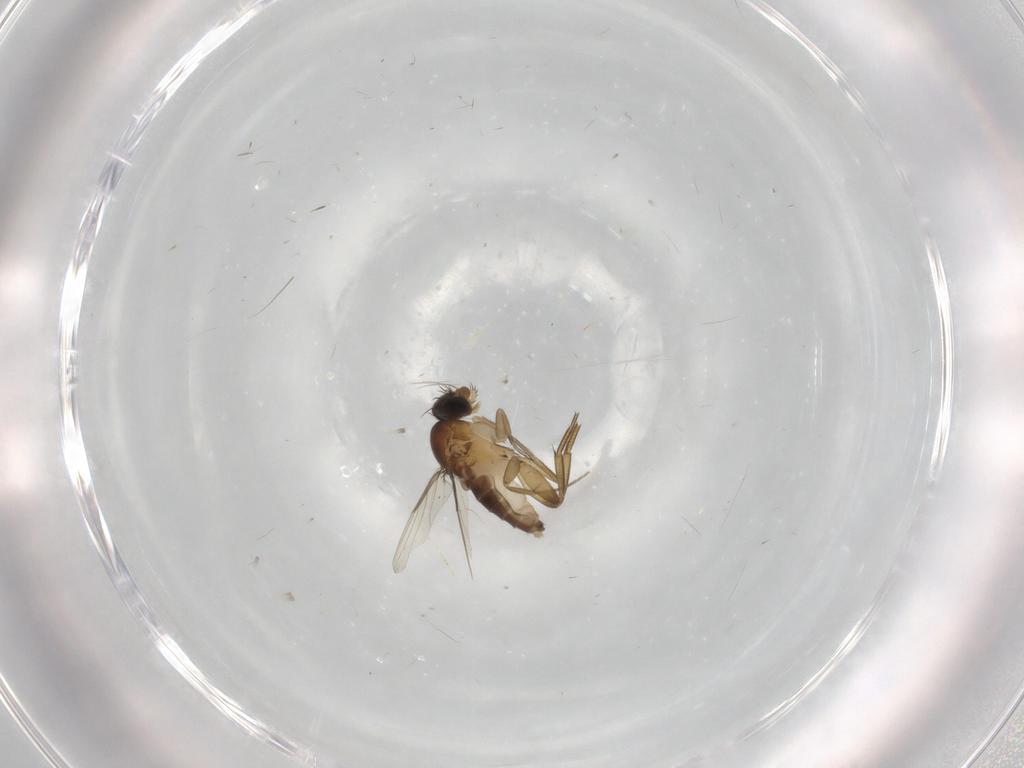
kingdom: Animalia
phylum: Arthropoda
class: Insecta
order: Diptera
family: Phoridae
